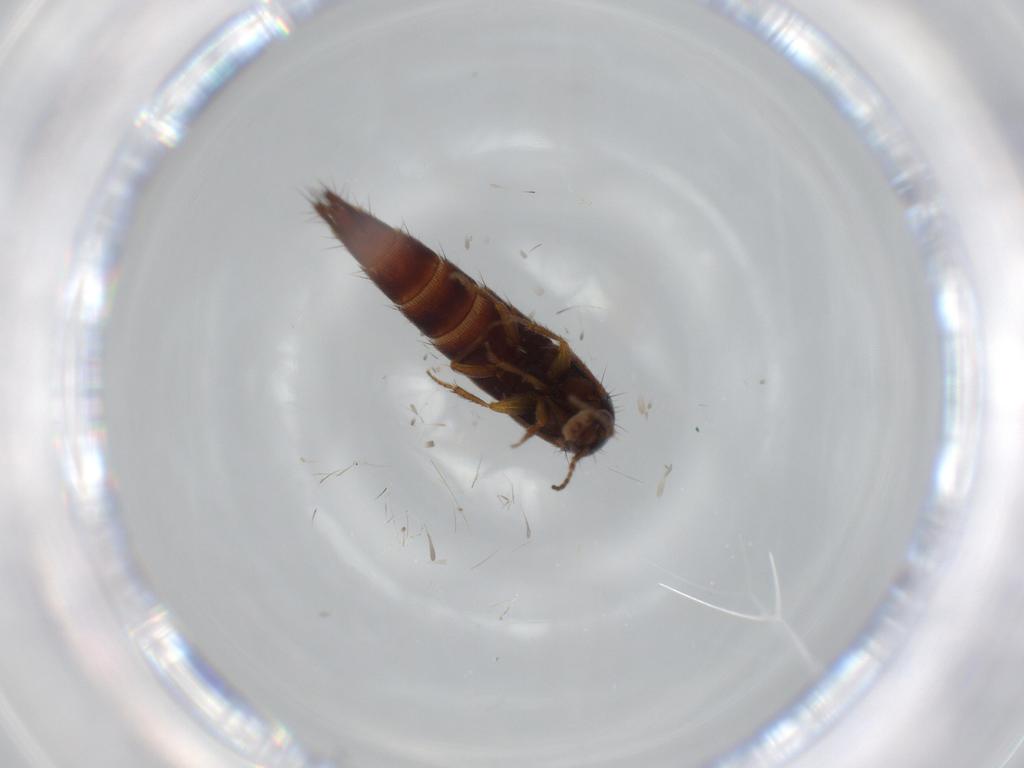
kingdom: Animalia
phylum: Arthropoda
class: Insecta
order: Coleoptera
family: Staphylinidae
